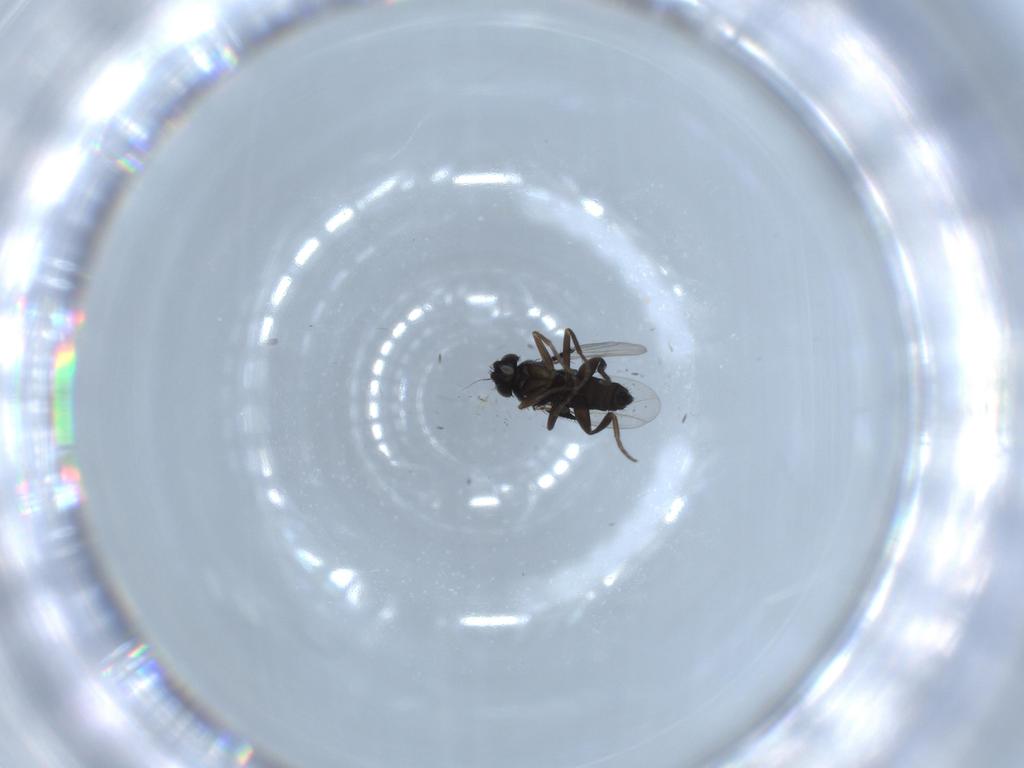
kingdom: Animalia
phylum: Arthropoda
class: Insecta
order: Diptera
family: Phoridae
